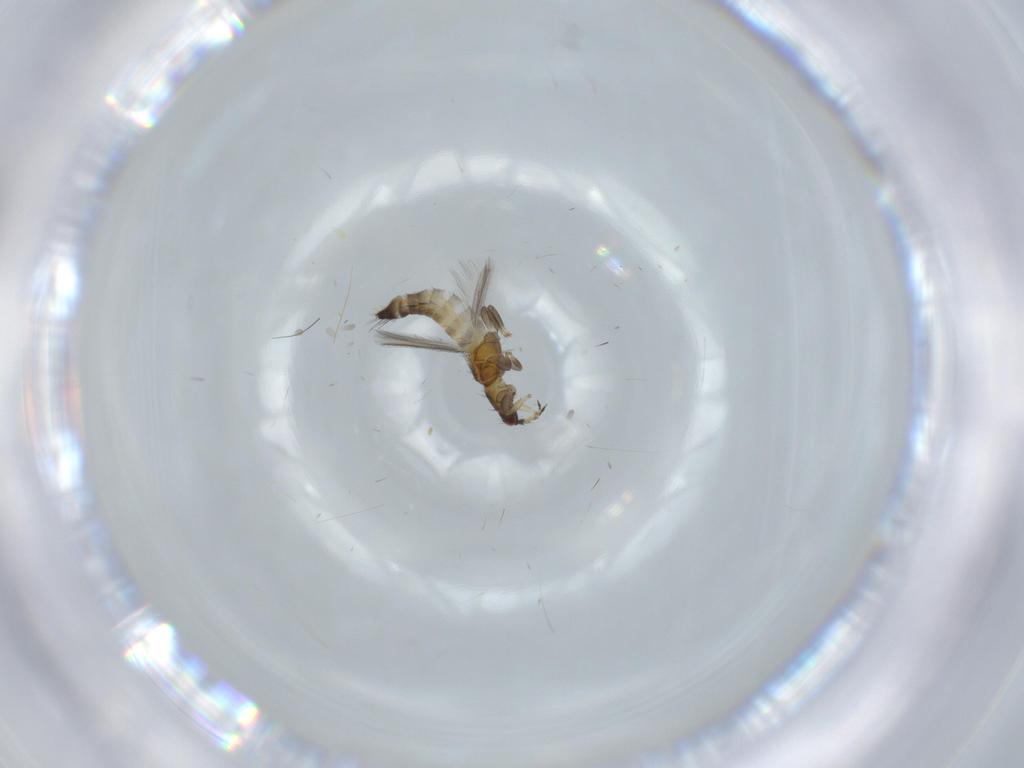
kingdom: Animalia
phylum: Arthropoda
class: Insecta
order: Thysanoptera
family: Thripidae
